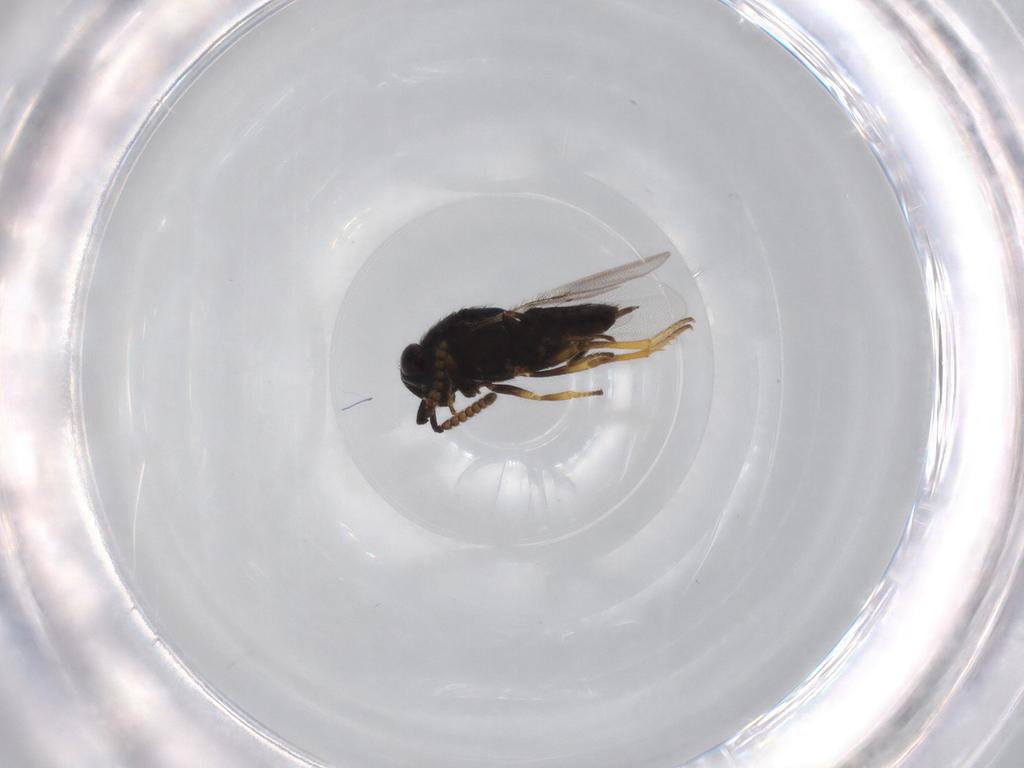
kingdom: Animalia
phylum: Arthropoda
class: Insecta
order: Hymenoptera
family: Encyrtidae
